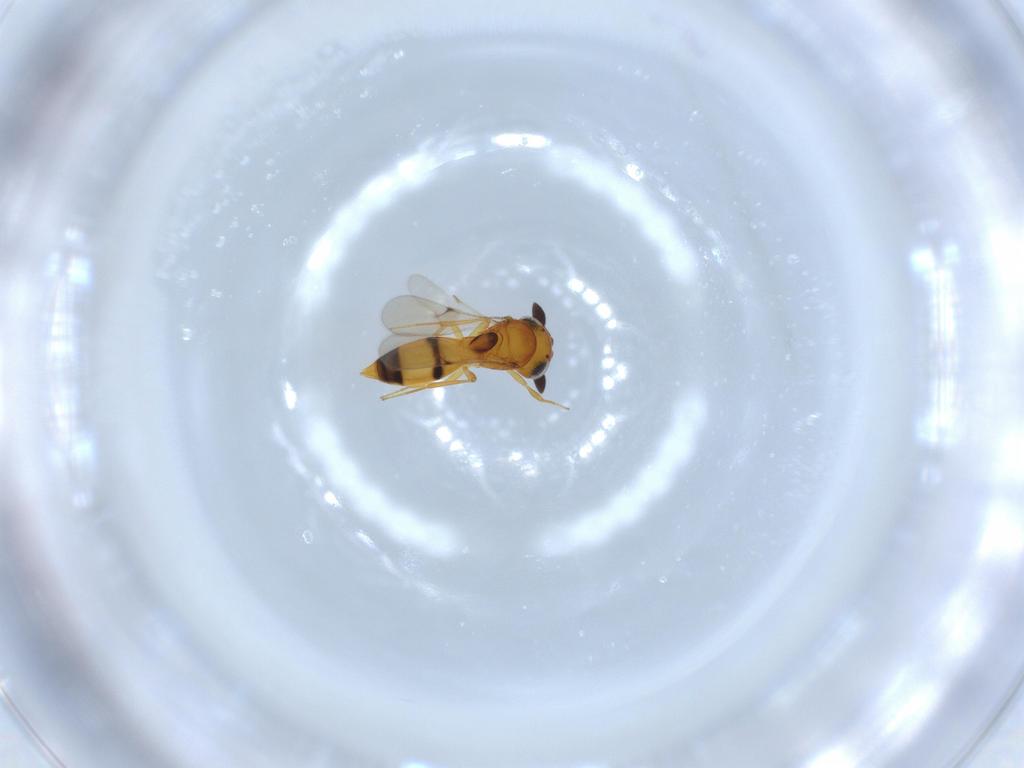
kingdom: Animalia
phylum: Arthropoda
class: Insecta
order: Hymenoptera
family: Scelionidae
